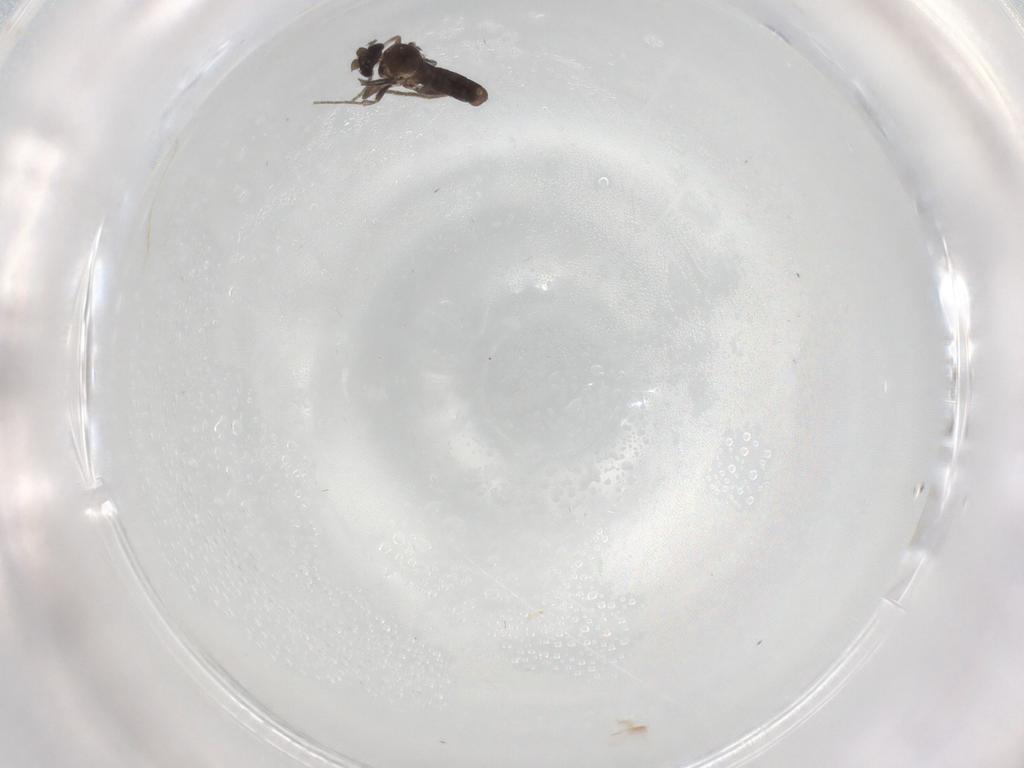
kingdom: Animalia
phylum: Arthropoda
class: Insecta
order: Diptera
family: Phoridae
